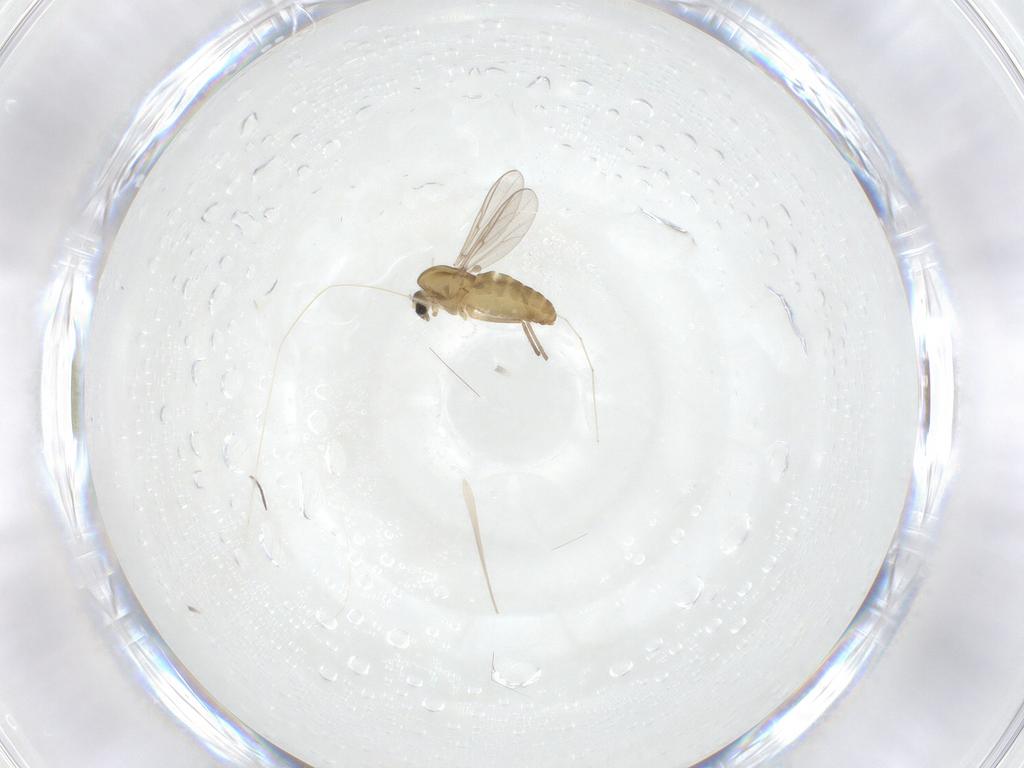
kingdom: Animalia
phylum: Arthropoda
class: Insecta
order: Diptera
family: Chironomidae
